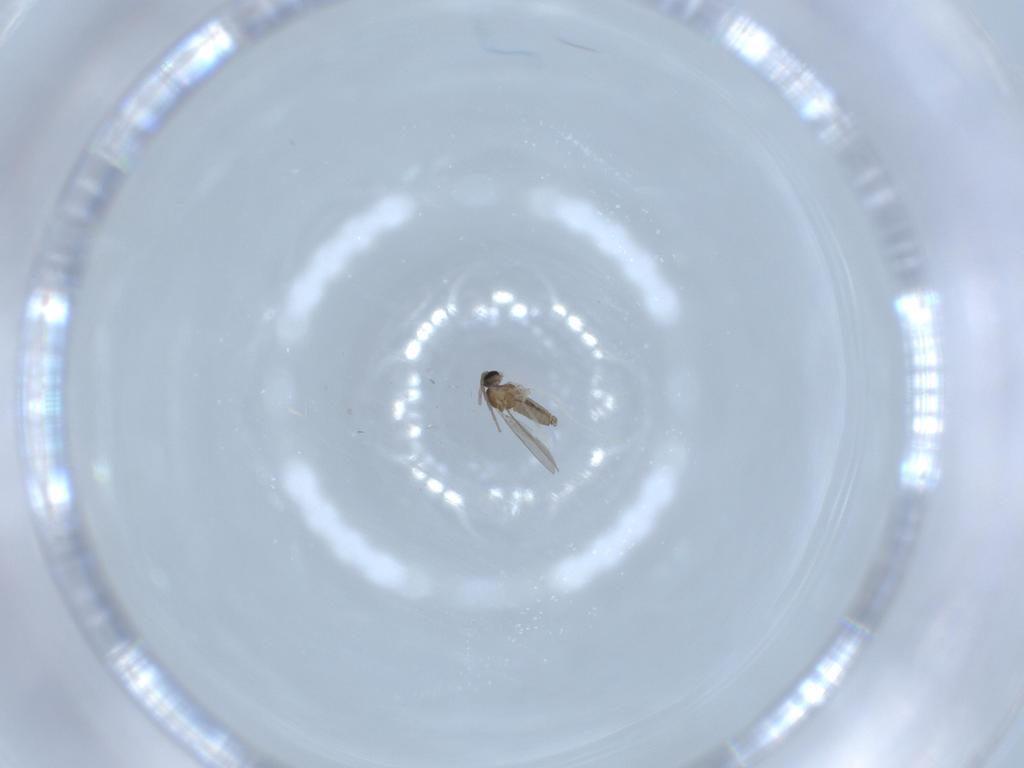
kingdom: Animalia
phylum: Arthropoda
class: Insecta
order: Diptera
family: Cecidomyiidae
